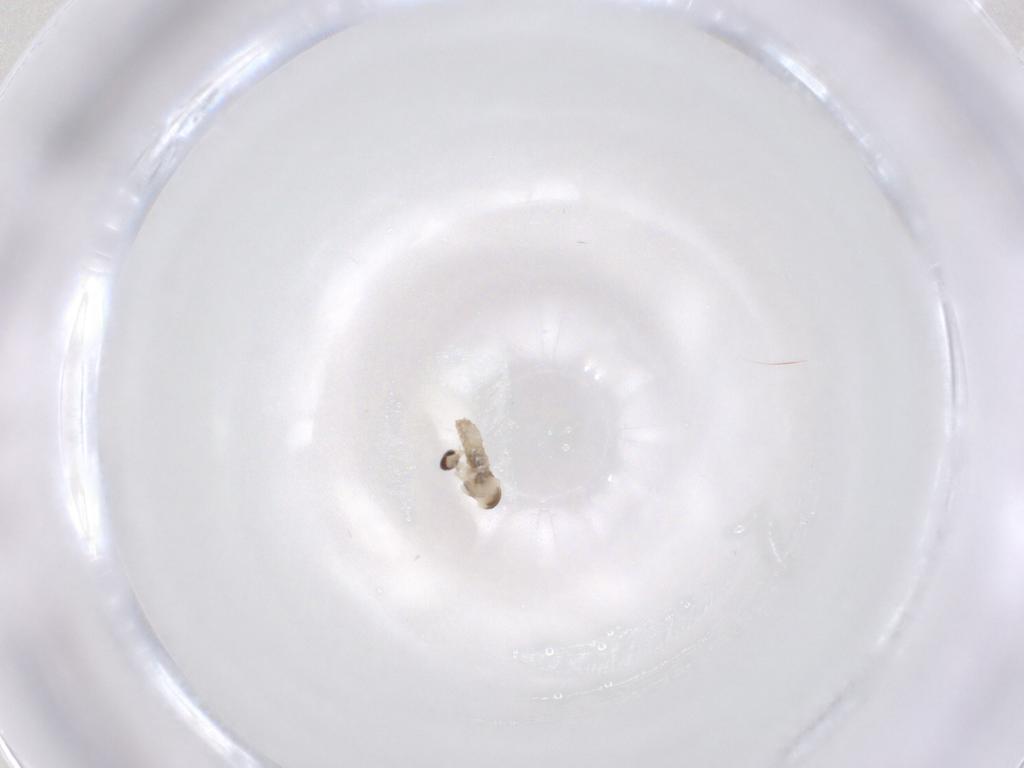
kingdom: Animalia
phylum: Arthropoda
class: Insecta
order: Diptera
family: Cecidomyiidae
